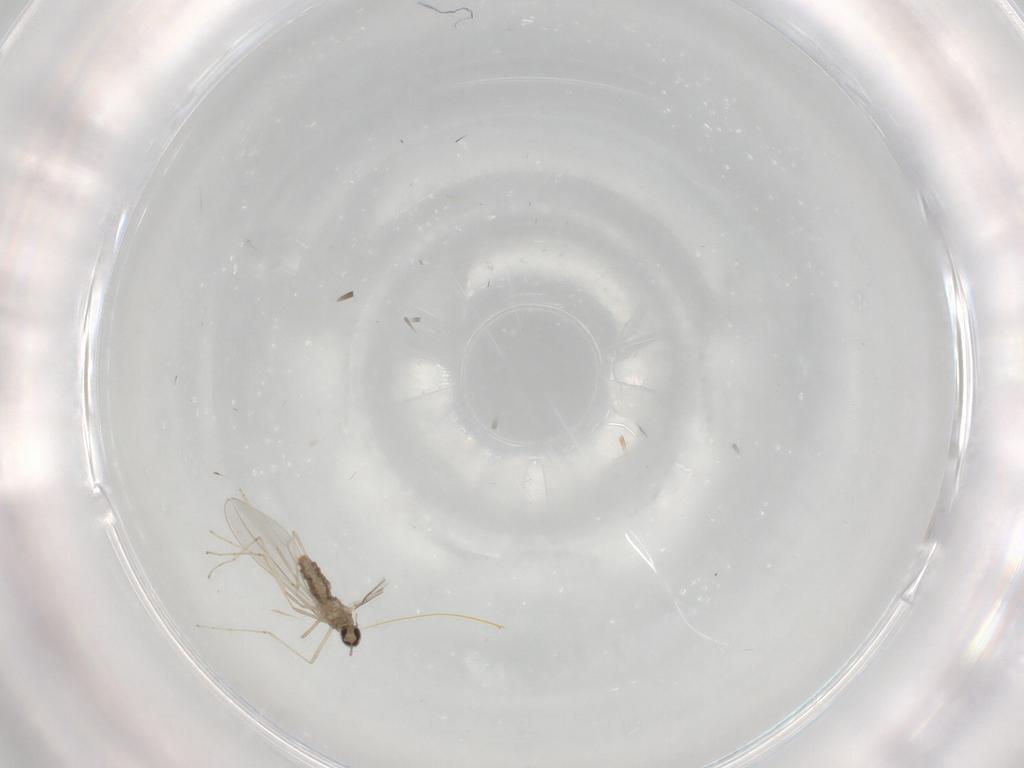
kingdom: Animalia
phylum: Arthropoda
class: Insecta
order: Diptera
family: Cecidomyiidae
